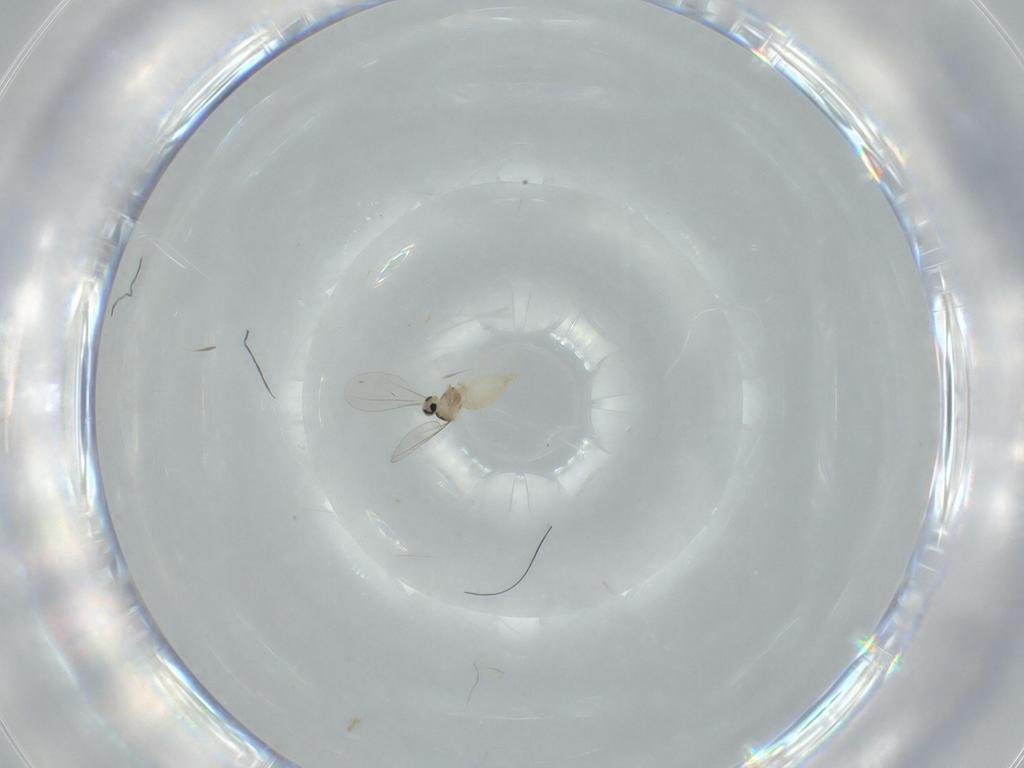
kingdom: Animalia
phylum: Arthropoda
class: Insecta
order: Diptera
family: Cecidomyiidae
